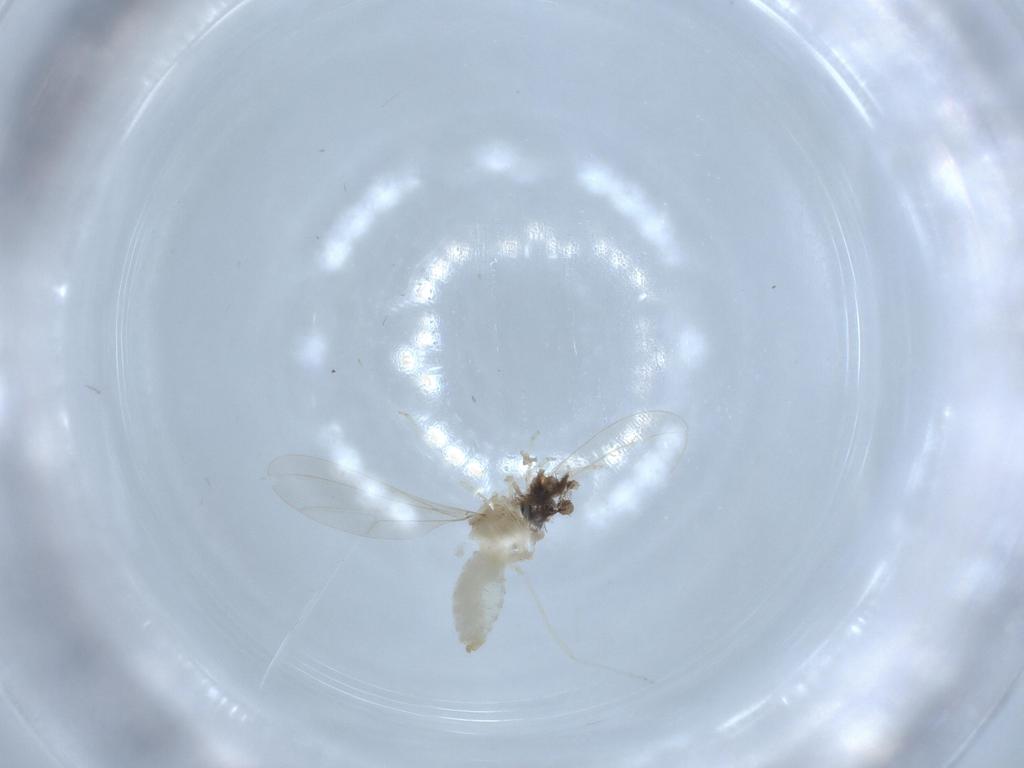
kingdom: Animalia
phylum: Arthropoda
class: Insecta
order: Diptera
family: Cecidomyiidae
